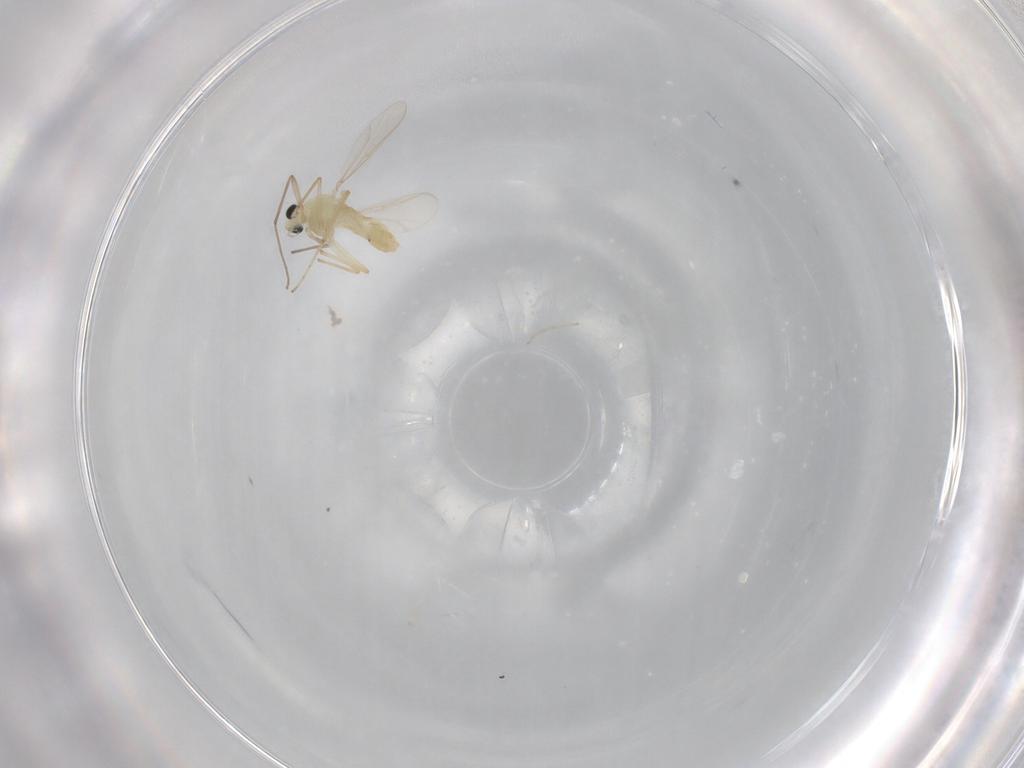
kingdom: Animalia
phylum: Arthropoda
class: Insecta
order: Diptera
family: Chironomidae
